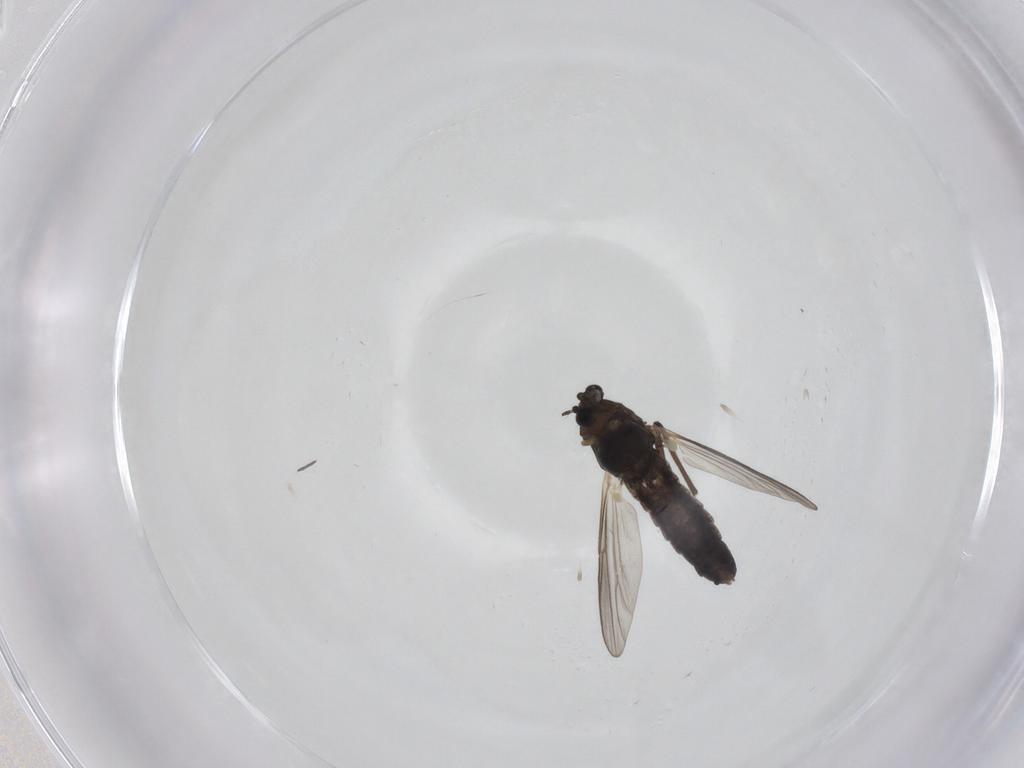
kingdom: Animalia
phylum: Arthropoda
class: Insecta
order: Diptera
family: Chironomidae
